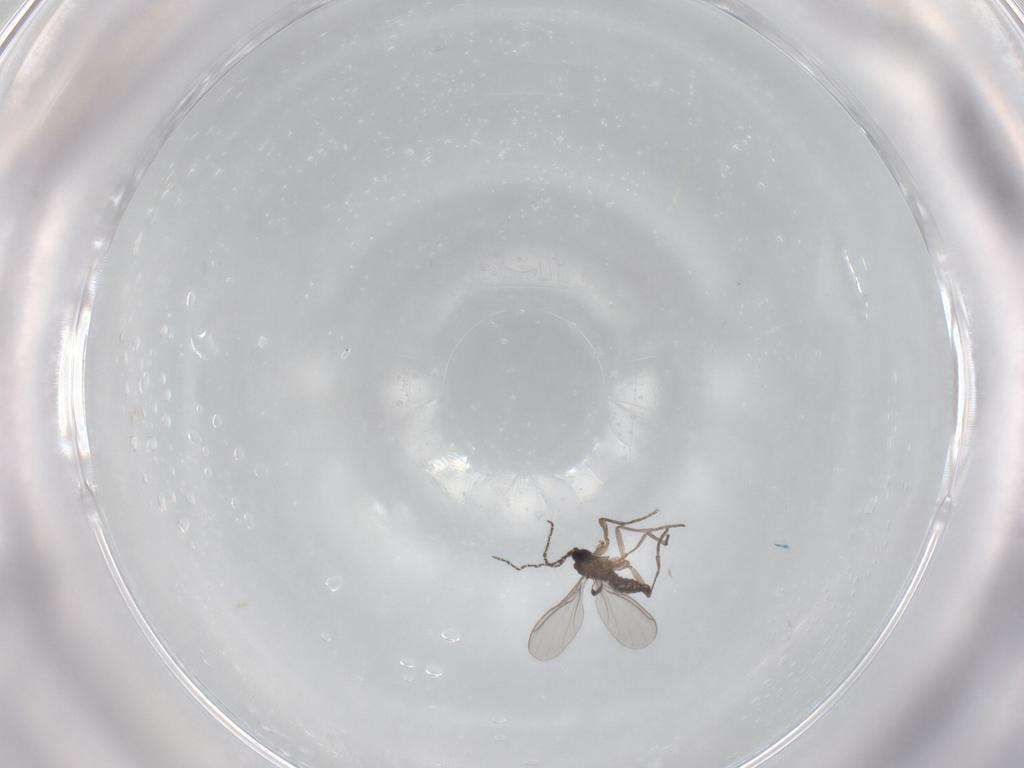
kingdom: Animalia
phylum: Arthropoda
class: Insecta
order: Diptera
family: Sciaridae
